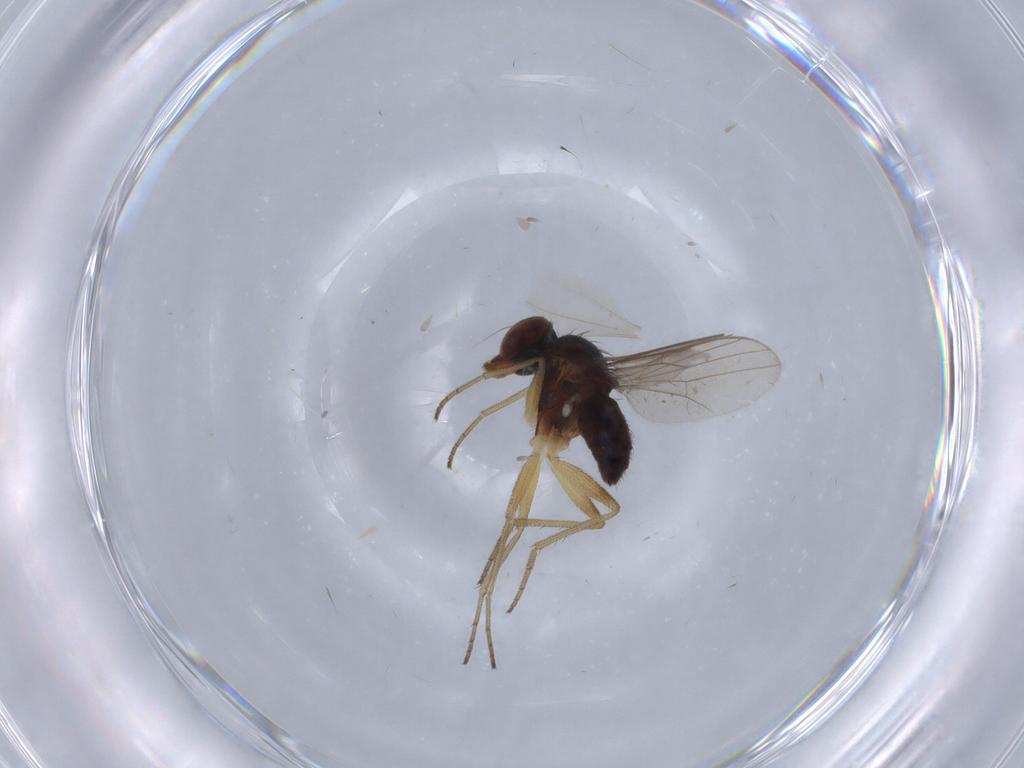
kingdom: Animalia
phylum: Arthropoda
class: Insecta
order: Diptera
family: Dolichopodidae
